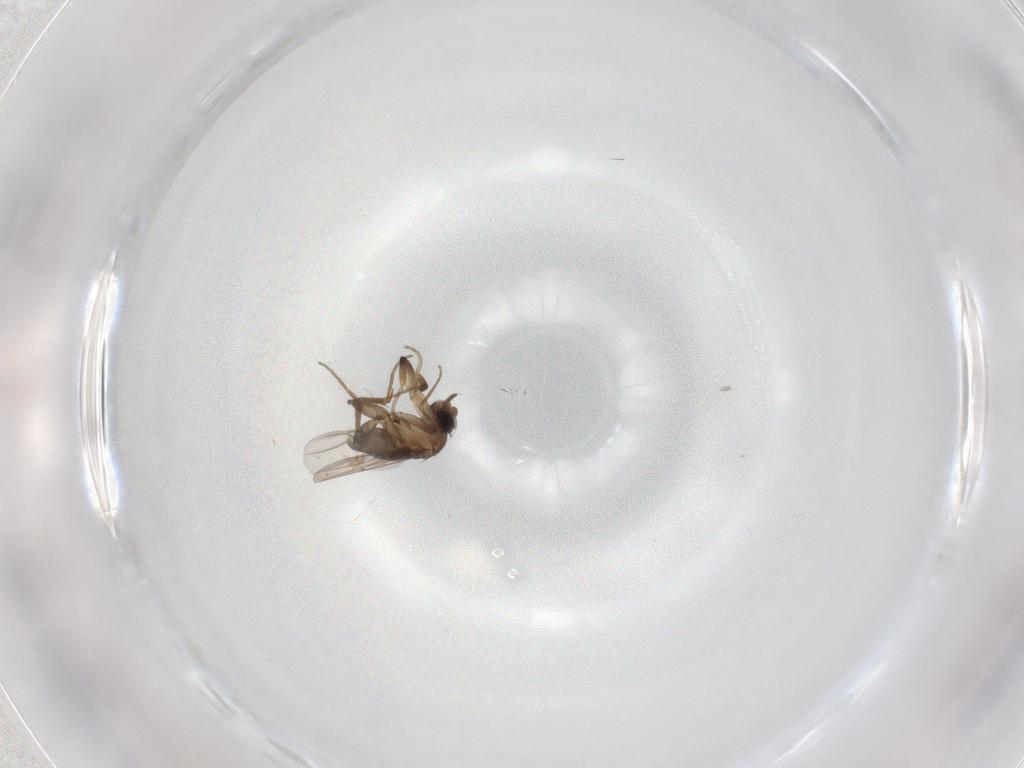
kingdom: Animalia
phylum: Arthropoda
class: Insecta
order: Diptera
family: Phoridae
